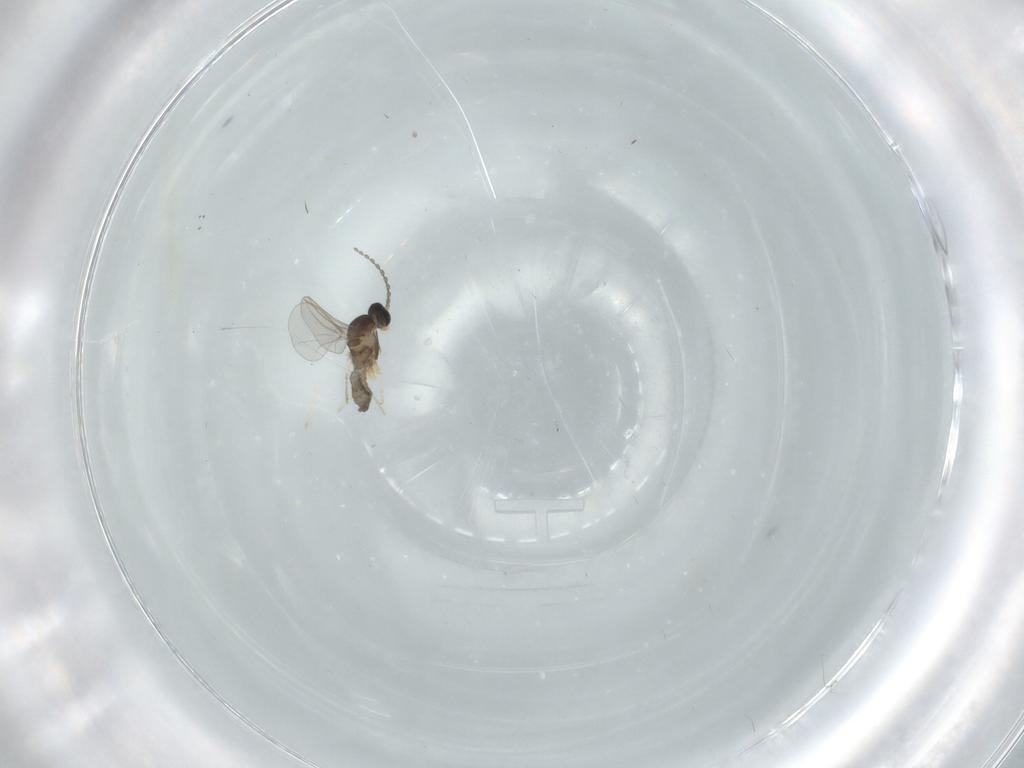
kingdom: Animalia
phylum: Arthropoda
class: Insecta
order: Diptera
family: Cecidomyiidae
